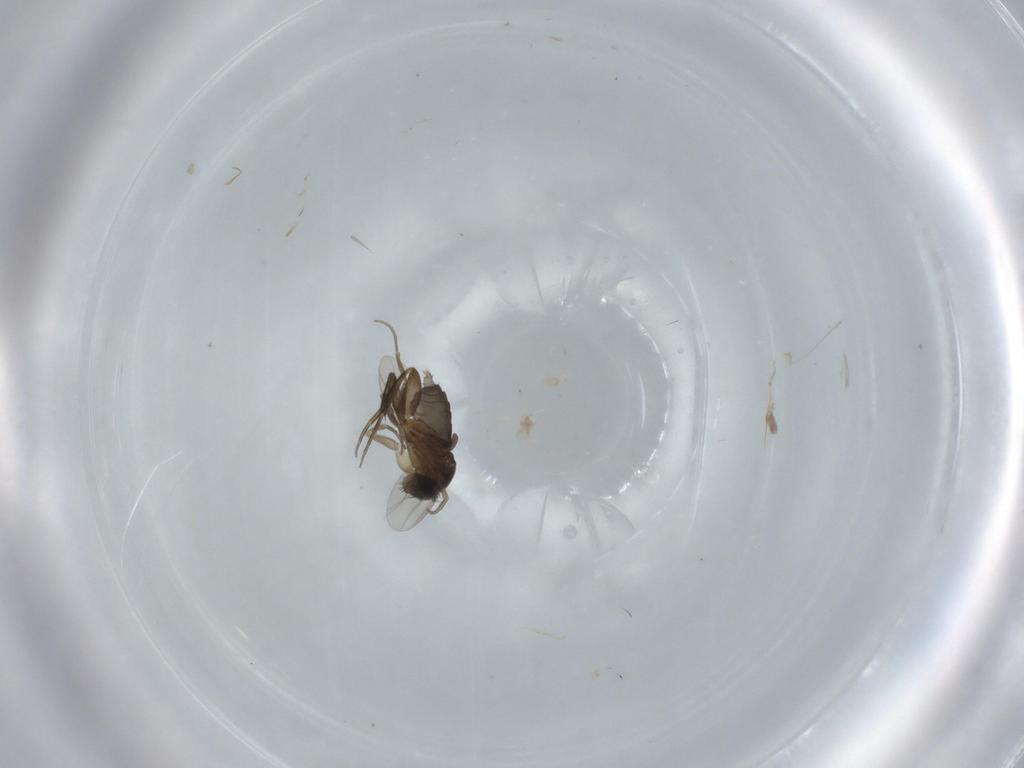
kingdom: Animalia
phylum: Arthropoda
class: Insecta
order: Diptera
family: Phoridae
